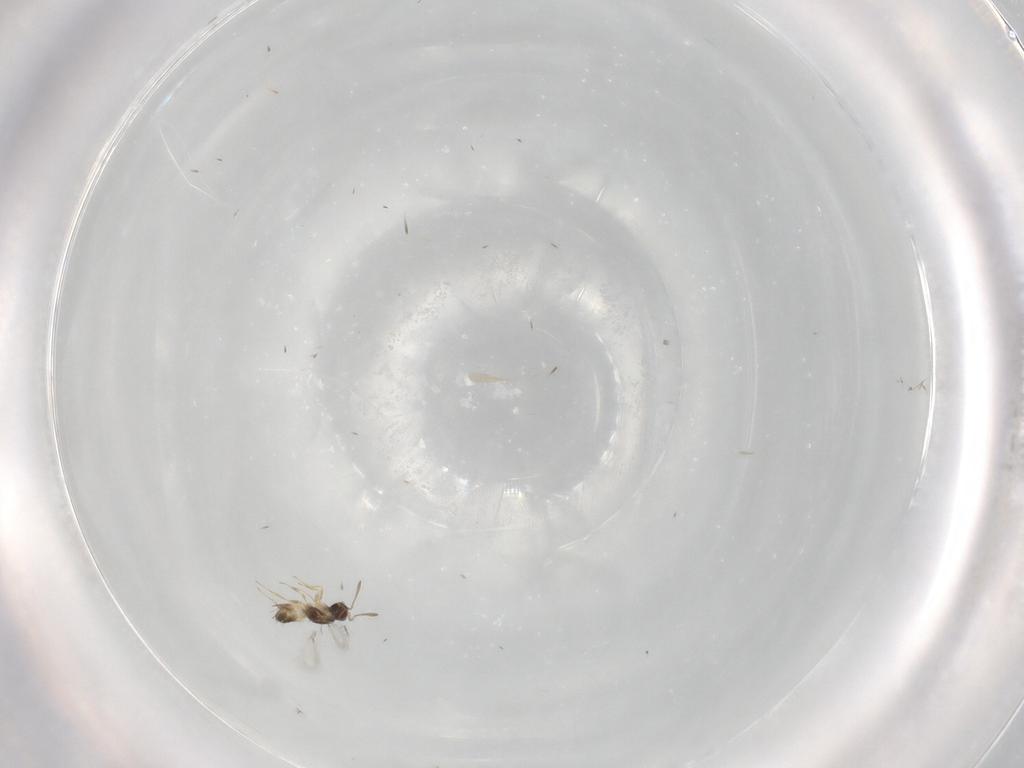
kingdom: Animalia
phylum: Arthropoda
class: Insecta
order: Hymenoptera
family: Mymaridae
